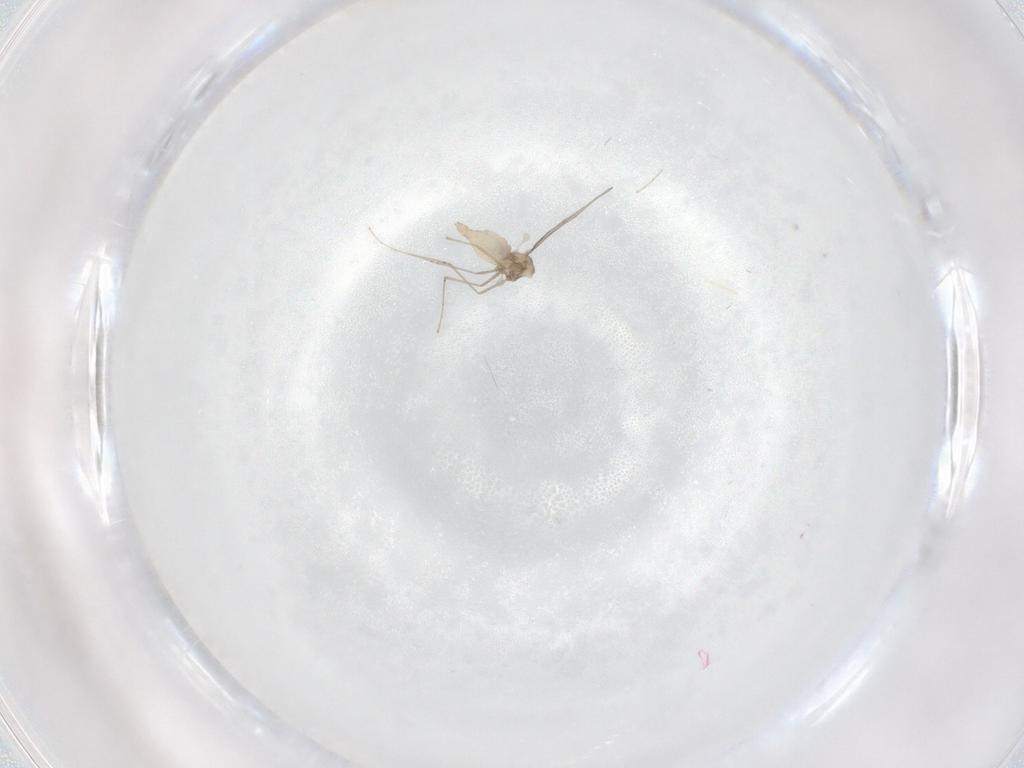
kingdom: Animalia
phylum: Arthropoda
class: Insecta
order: Diptera
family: Cecidomyiidae
